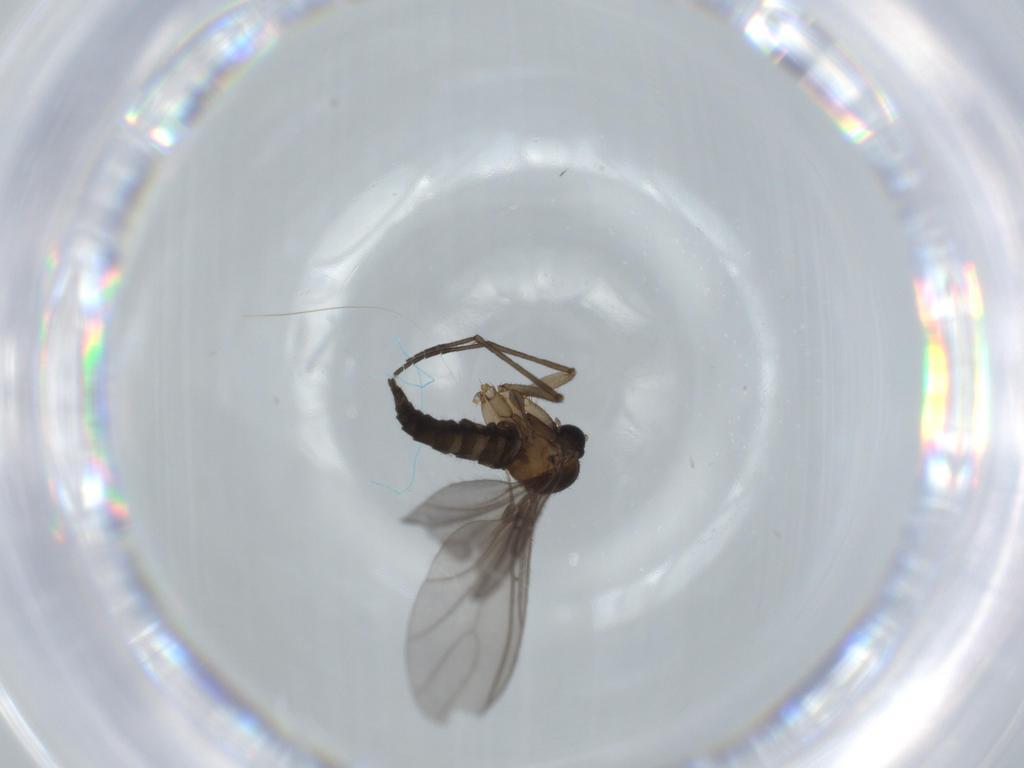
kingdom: Animalia
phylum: Arthropoda
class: Insecta
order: Diptera
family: Sciaridae
